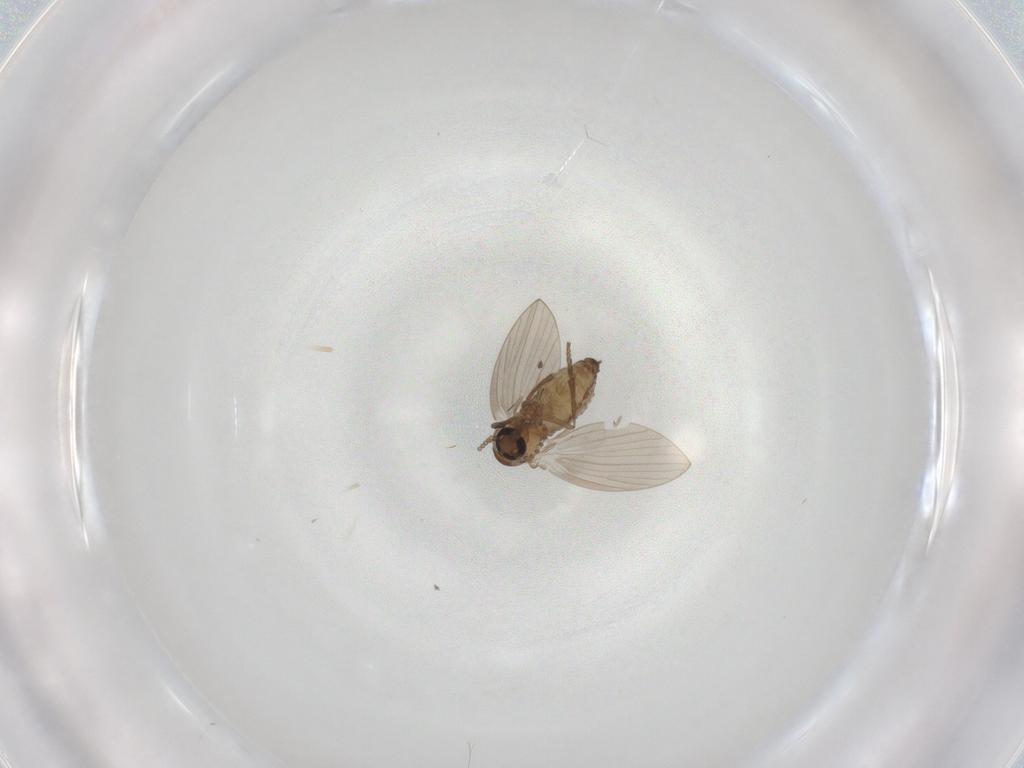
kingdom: Animalia
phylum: Arthropoda
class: Insecta
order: Diptera
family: Psychodidae
